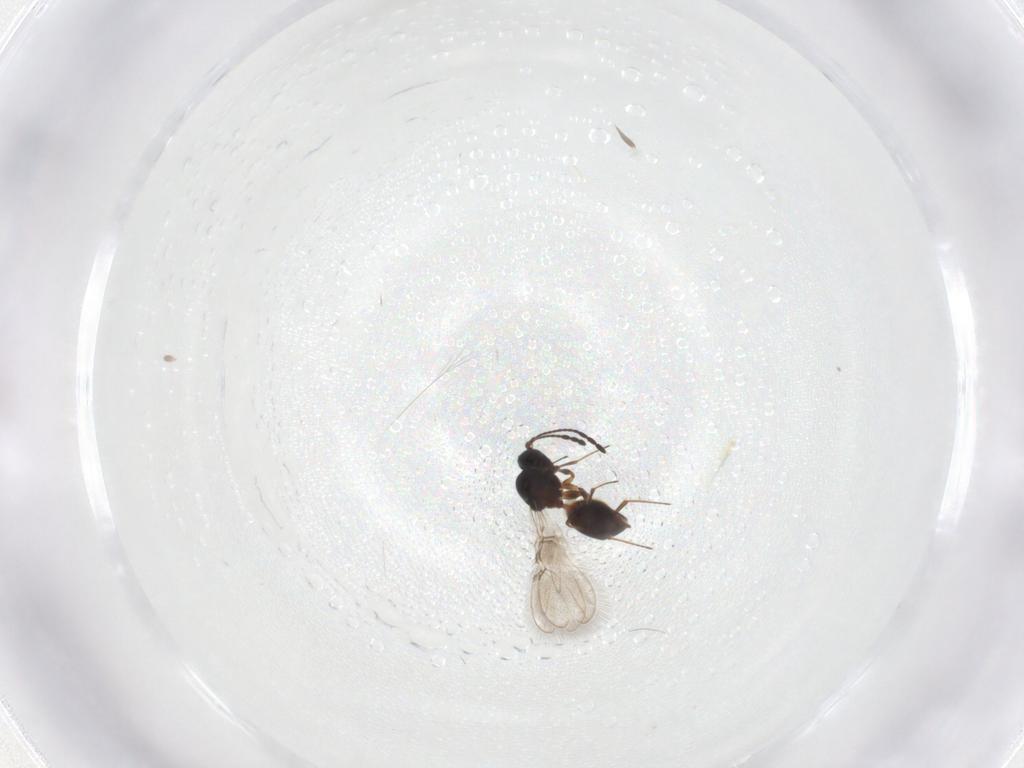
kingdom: Animalia
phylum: Arthropoda
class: Insecta
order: Hymenoptera
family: Figitidae
